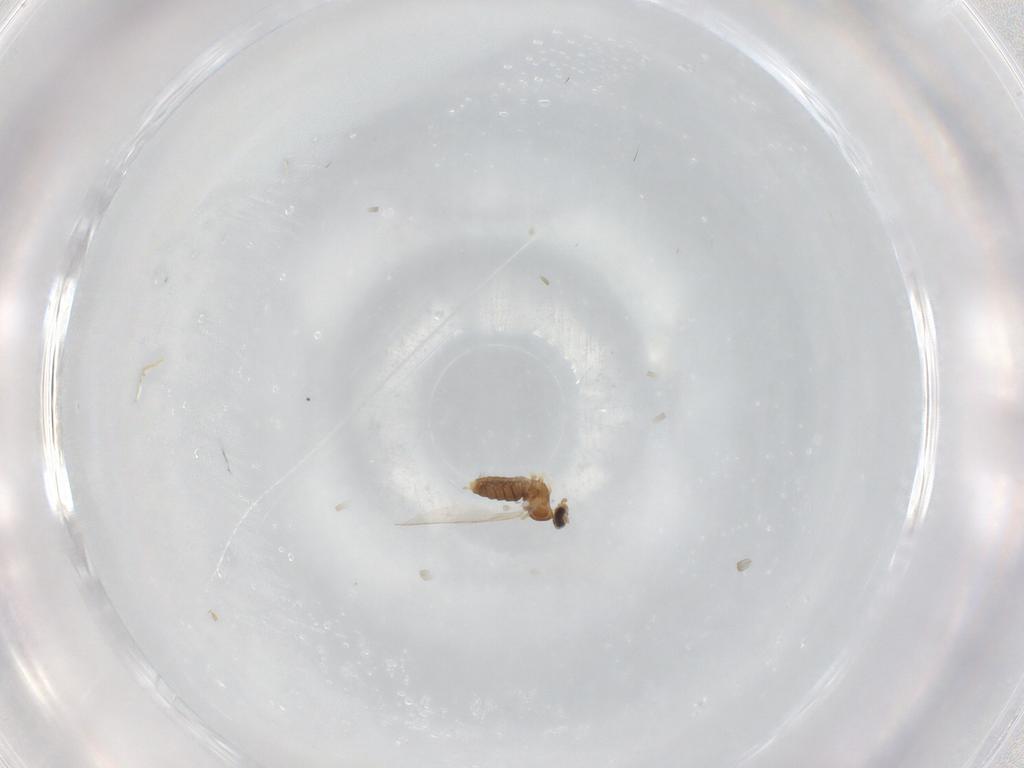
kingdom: Animalia
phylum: Arthropoda
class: Insecta
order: Diptera
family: Cecidomyiidae
